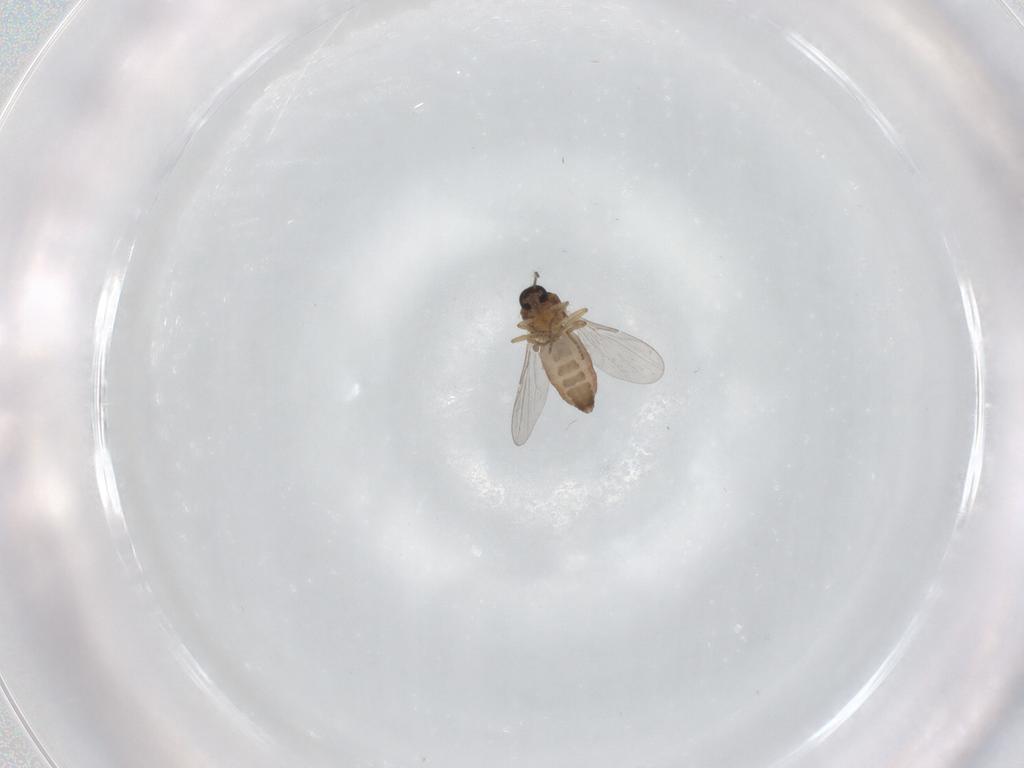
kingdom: Animalia
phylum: Arthropoda
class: Insecta
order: Diptera
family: Ceratopogonidae
